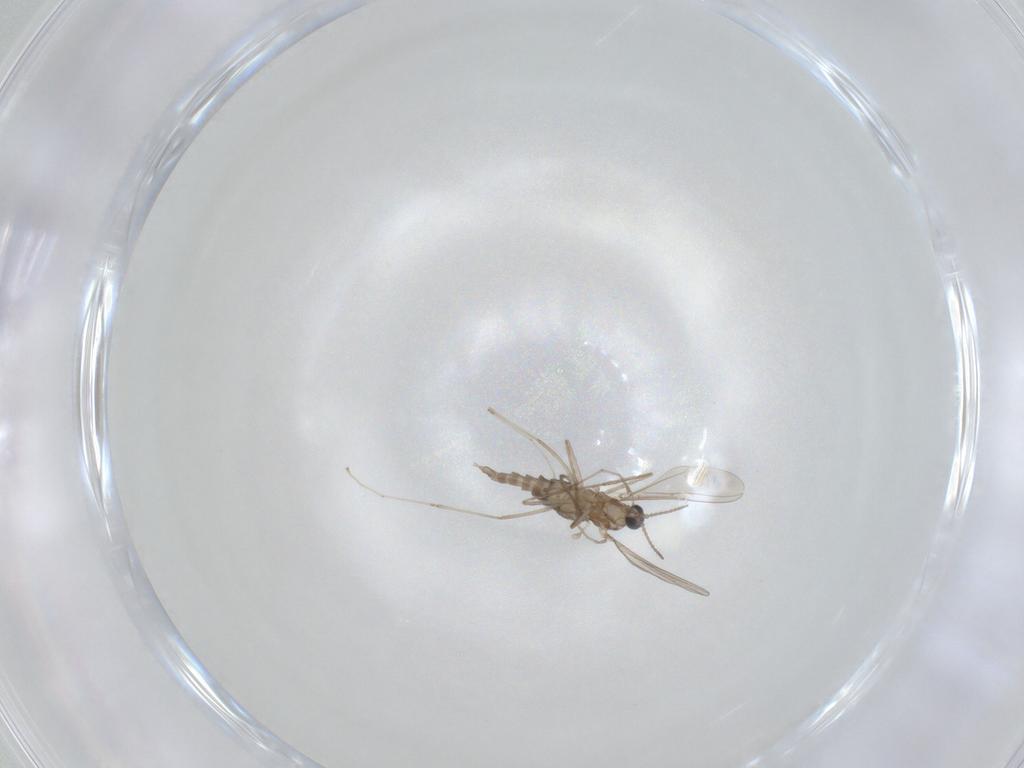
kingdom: Animalia
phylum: Arthropoda
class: Insecta
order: Diptera
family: Cecidomyiidae
